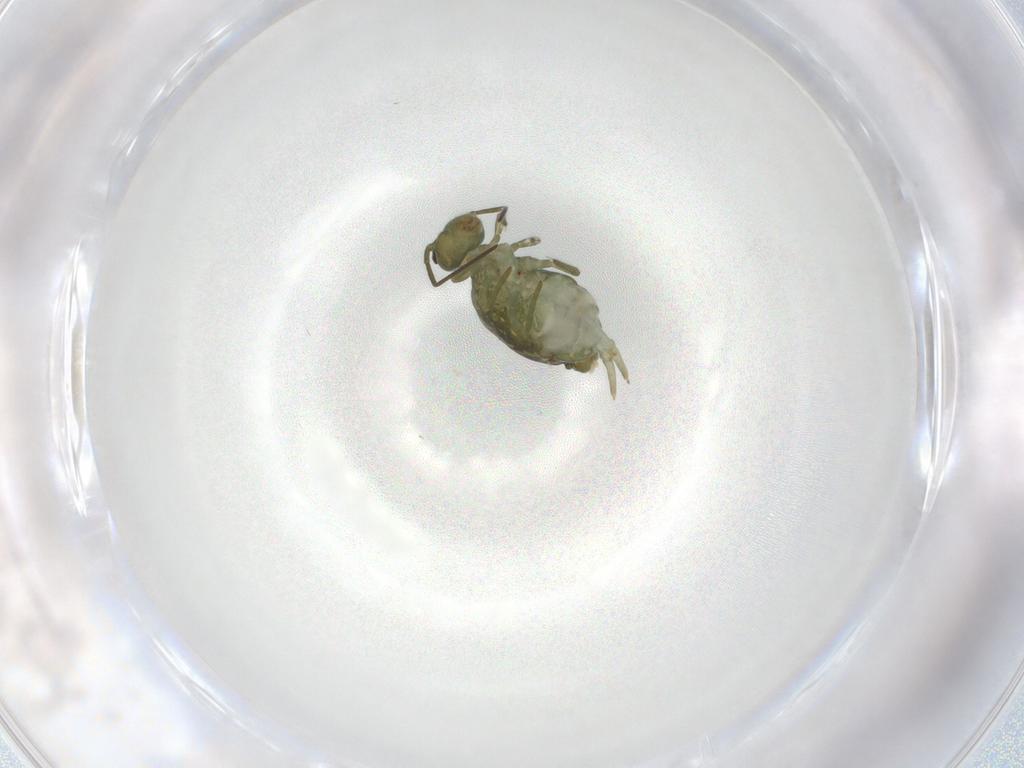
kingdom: Animalia
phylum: Arthropoda
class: Collembola
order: Symphypleona
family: Sminthuridae
